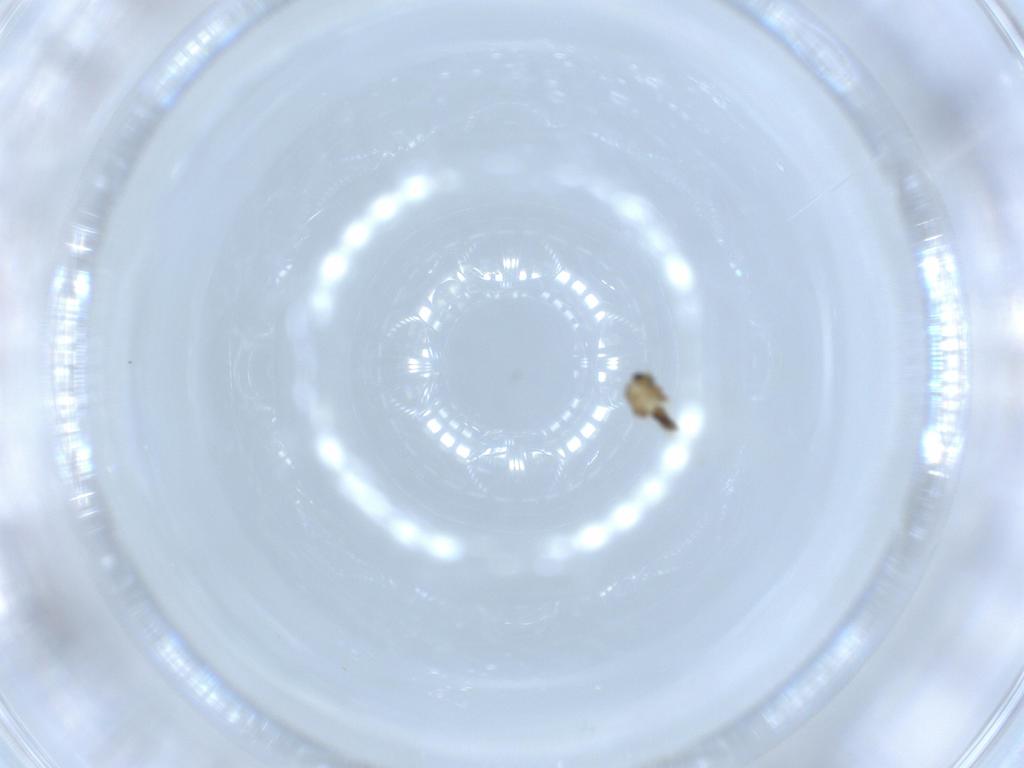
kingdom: Animalia
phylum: Arthropoda
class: Insecta
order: Diptera
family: Chironomidae
